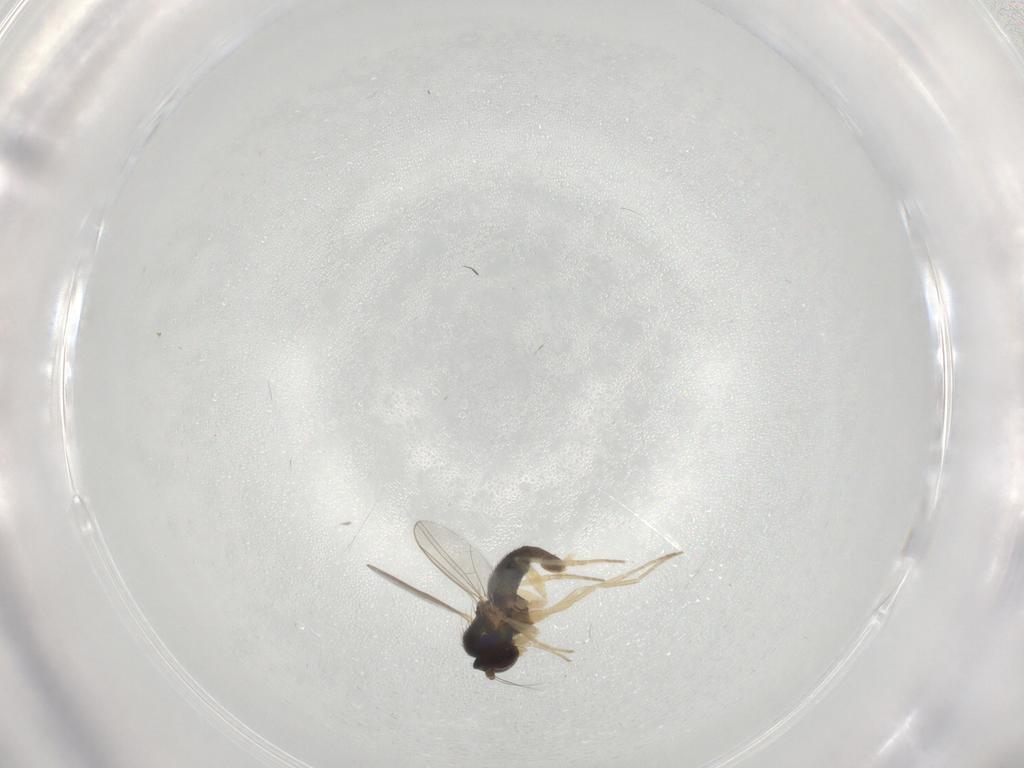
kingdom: Animalia
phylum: Arthropoda
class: Insecta
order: Diptera
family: Dolichopodidae
